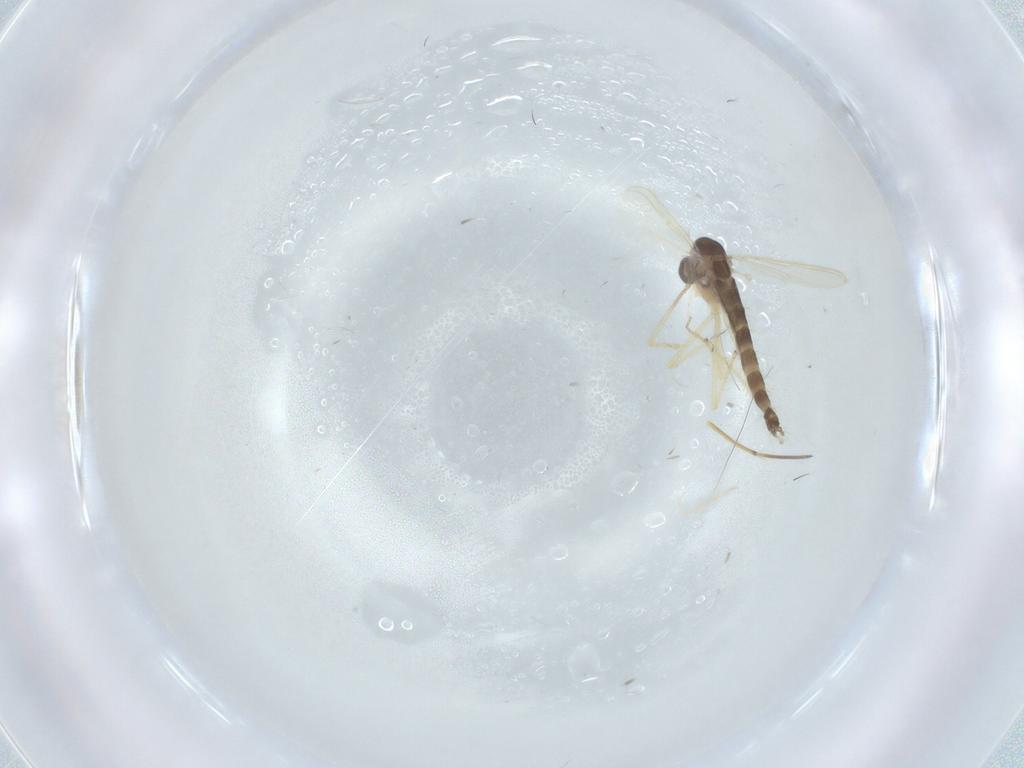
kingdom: Animalia
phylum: Arthropoda
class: Insecta
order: Diptera
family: Chironomidae
